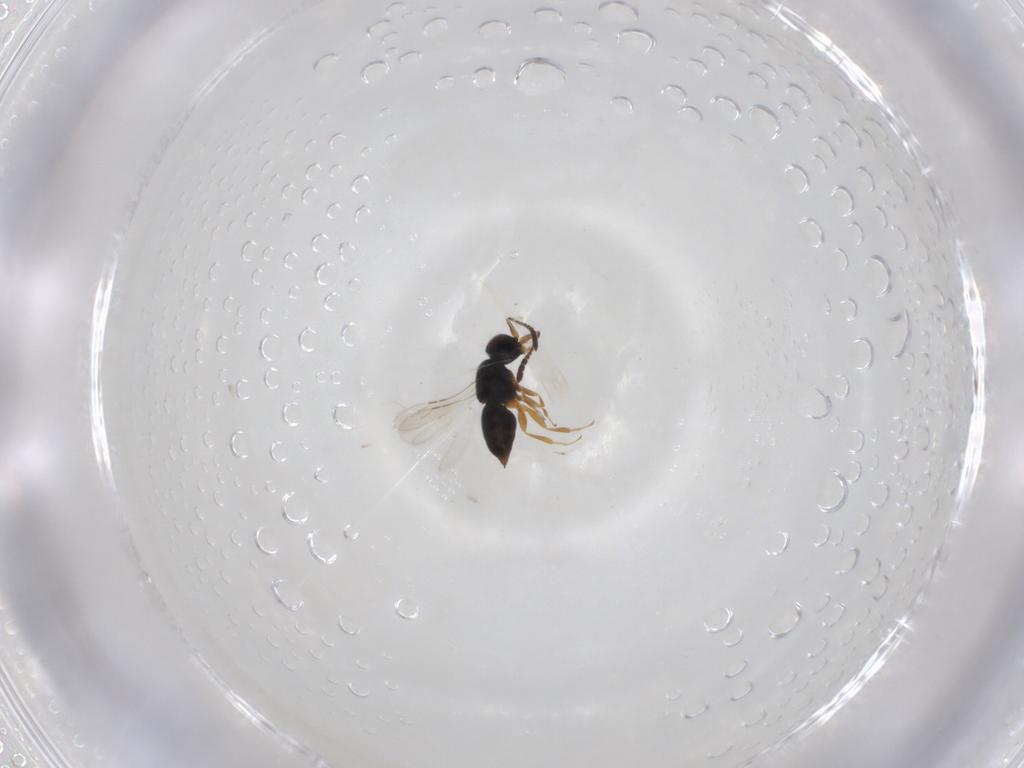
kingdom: Animalia
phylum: Arthropoda
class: Insecta
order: Hymenoptera
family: Ceraphronidae
